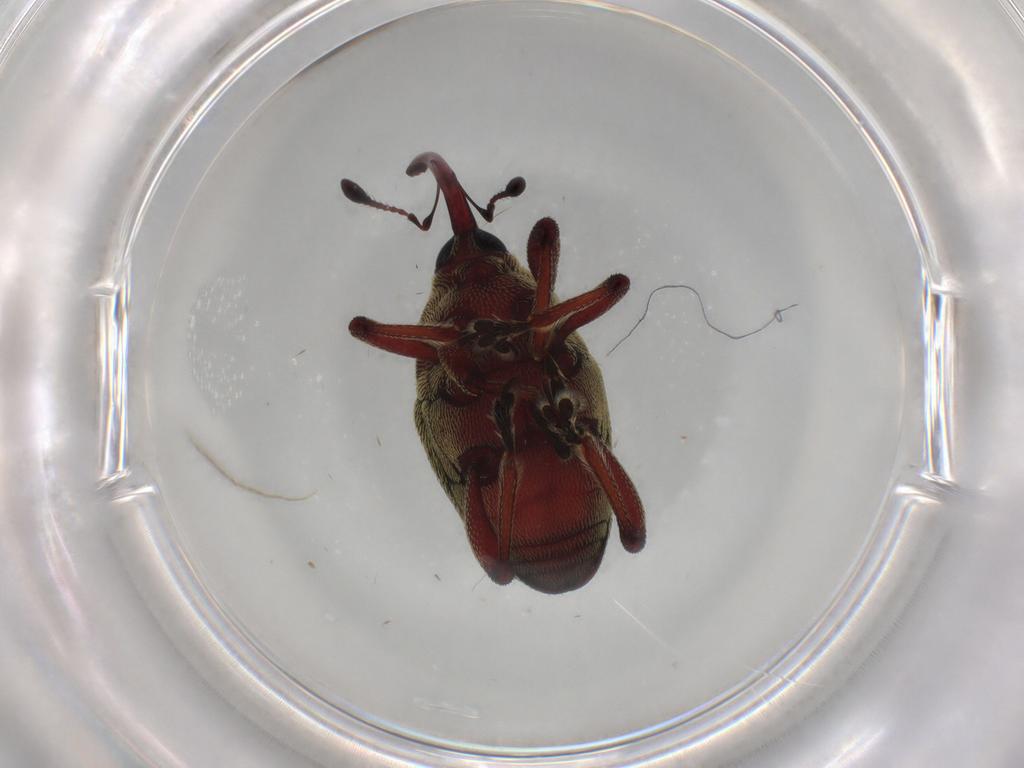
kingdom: Animalia
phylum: Arthropoda
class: Insecta
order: Coleoptera
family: Curculionidae
